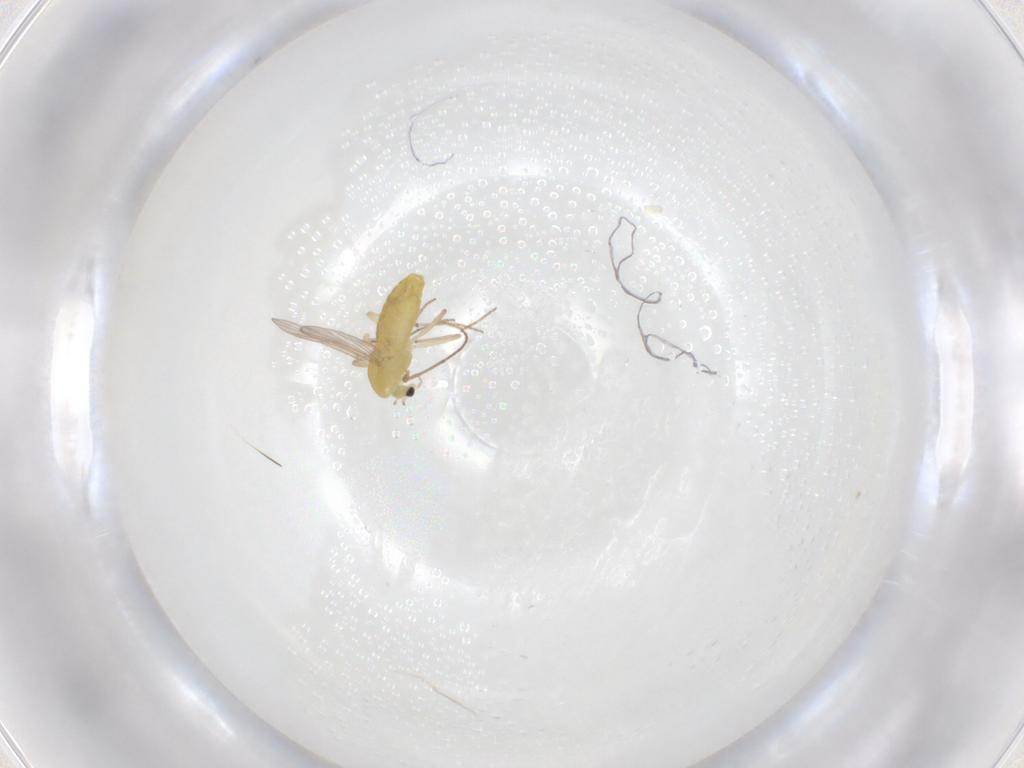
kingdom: Animalia
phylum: Arthropoda
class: Insecta
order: Diptera
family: Chironomidae
